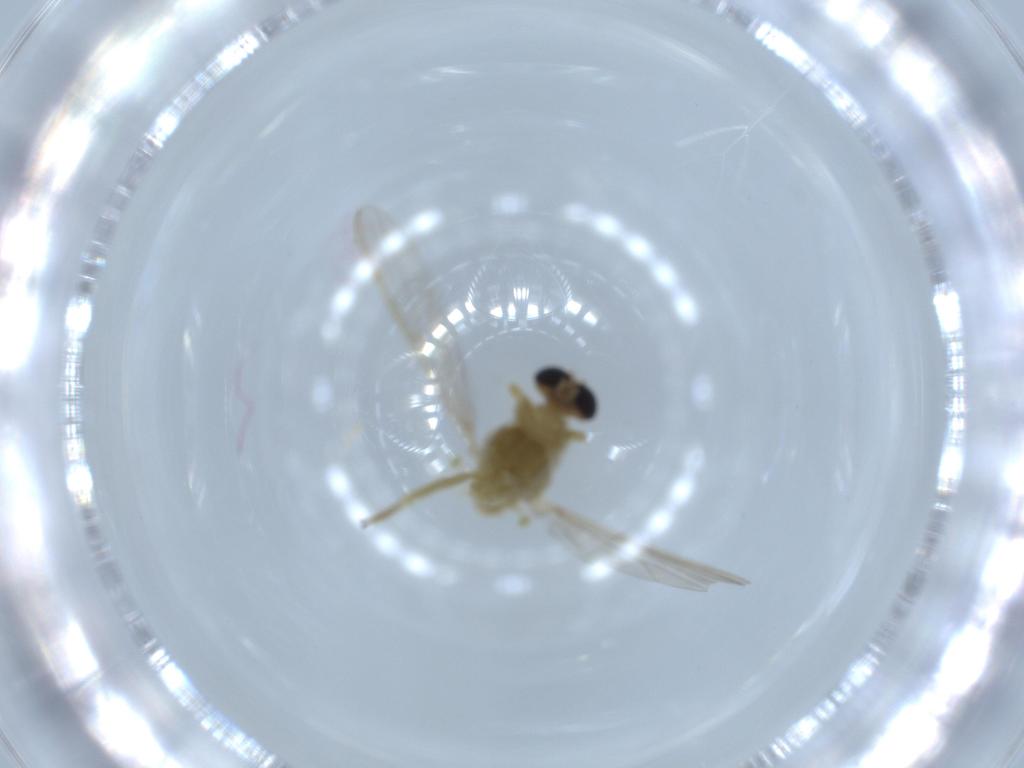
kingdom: Animalia
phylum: Arthropoda
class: Insecta
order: Diptera
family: Chironomidae
